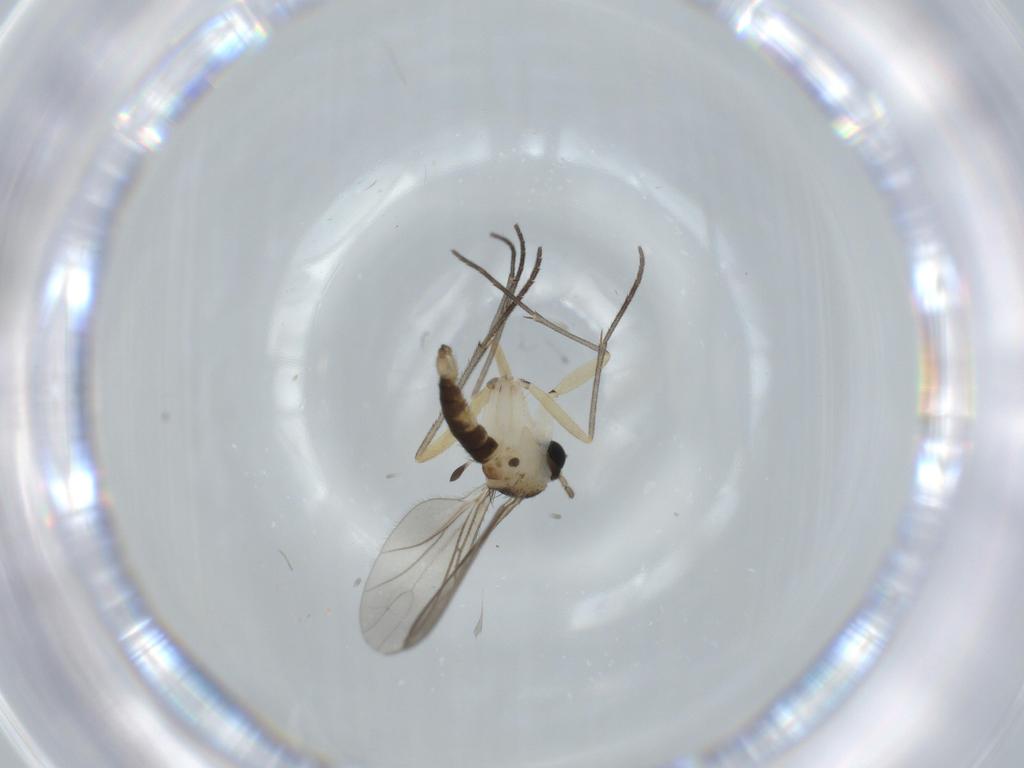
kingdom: Animalia
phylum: Arthropoda
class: Insecta
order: Diptera
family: Sciaridae
